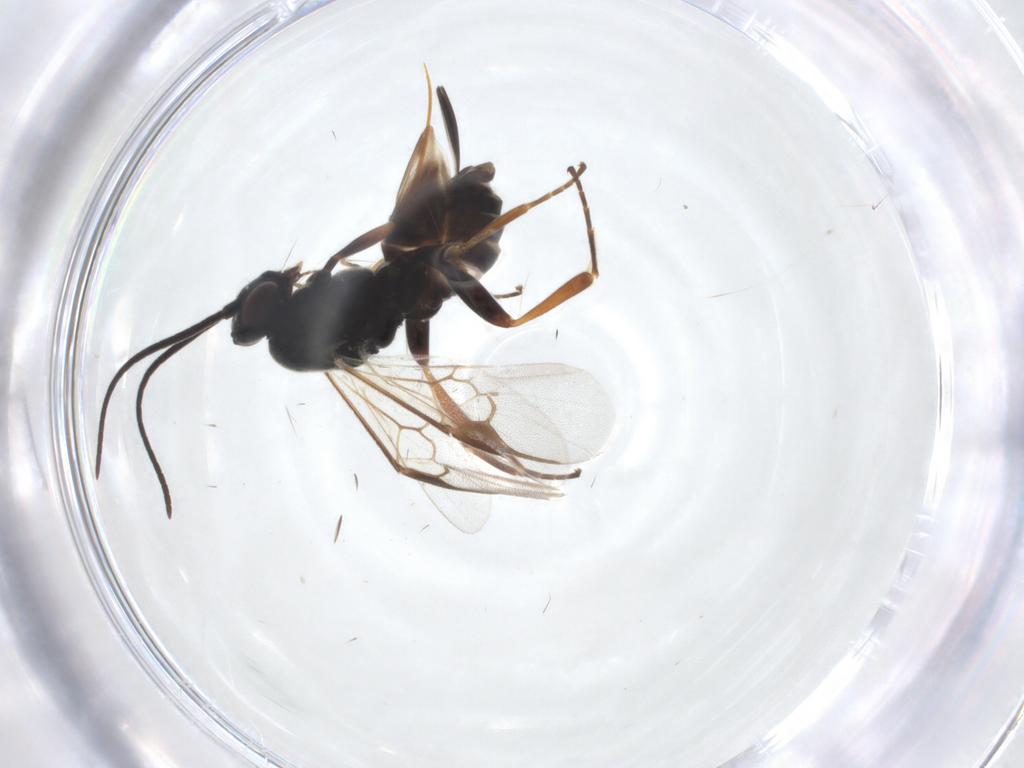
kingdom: Animalia
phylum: Arthropoda
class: Insecta
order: Hymenoptera
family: Braconidae
